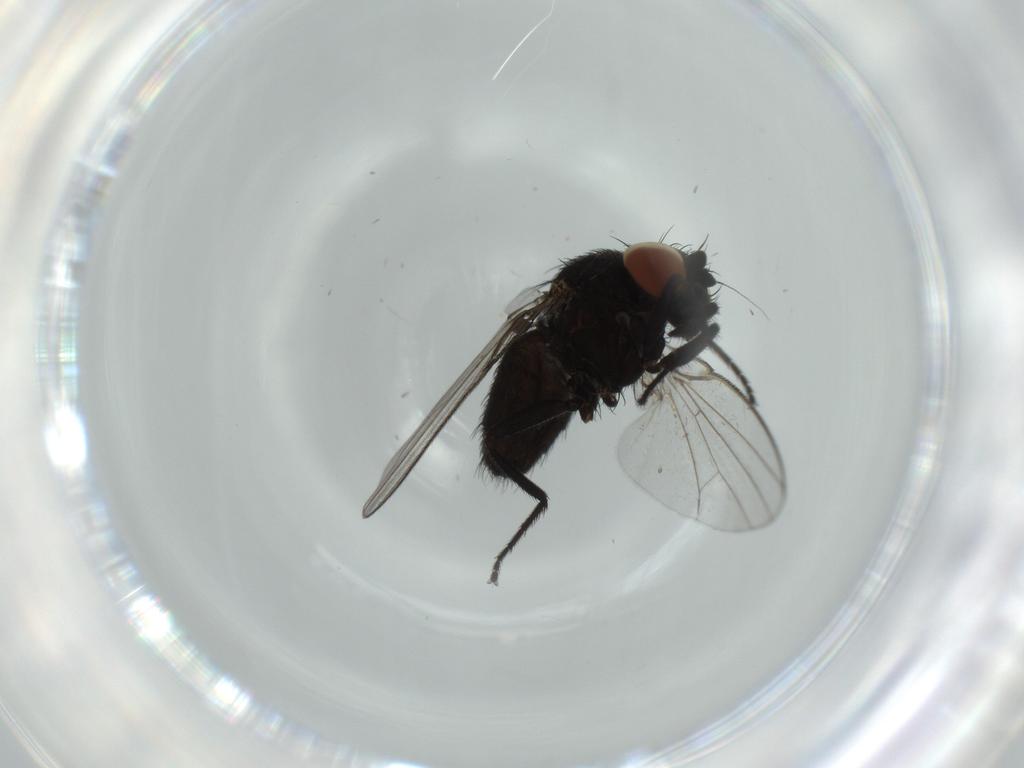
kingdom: Animalia
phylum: Arthropoda
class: Insecta
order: Diptera
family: Milichiidae
